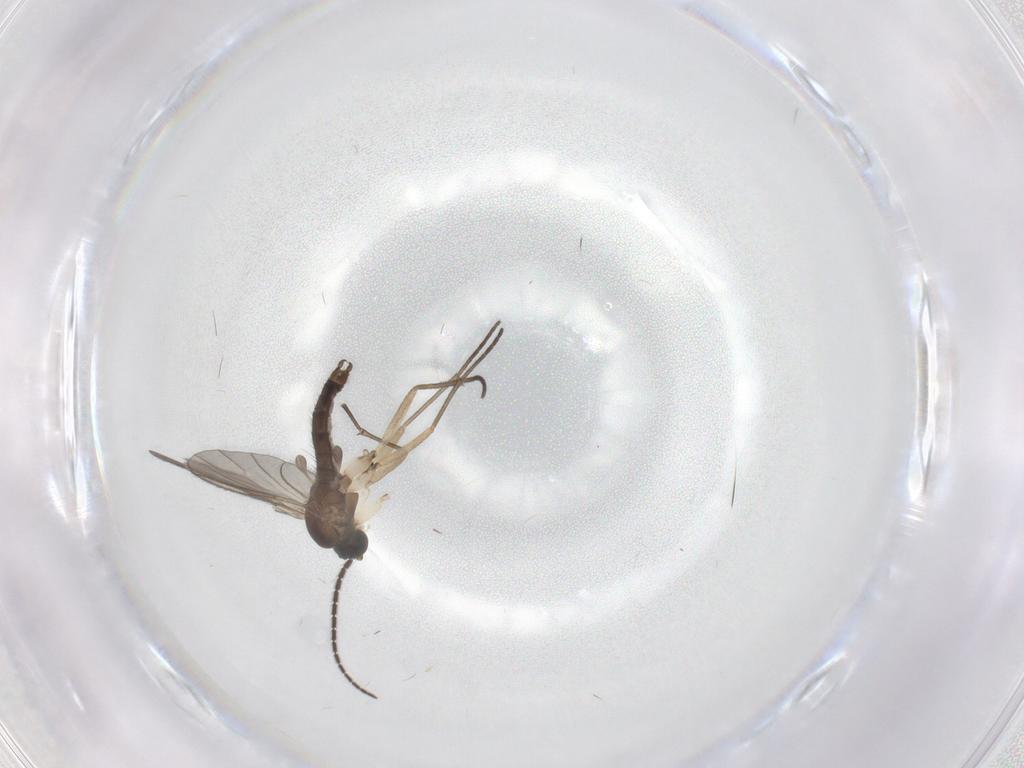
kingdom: Animalia
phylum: Arthropoda
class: Insecta
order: Diptera
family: Sciaridae
